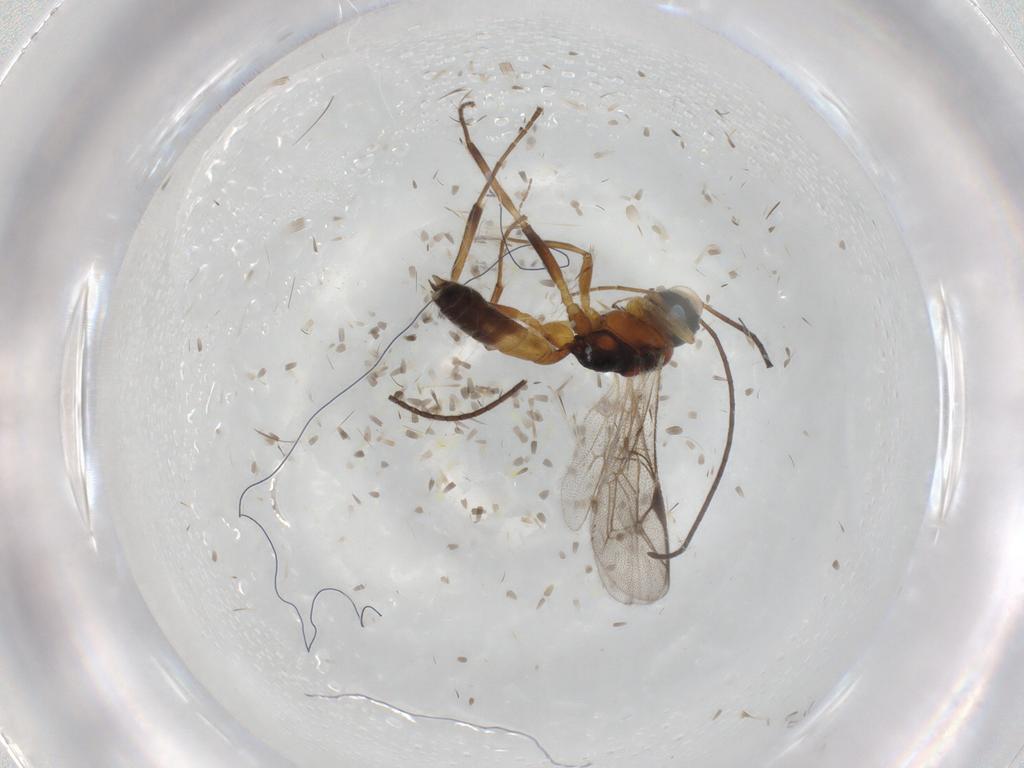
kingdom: Animalia
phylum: Arthropoda
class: Insecta
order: Hymenoptera
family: Ichneumonidae
